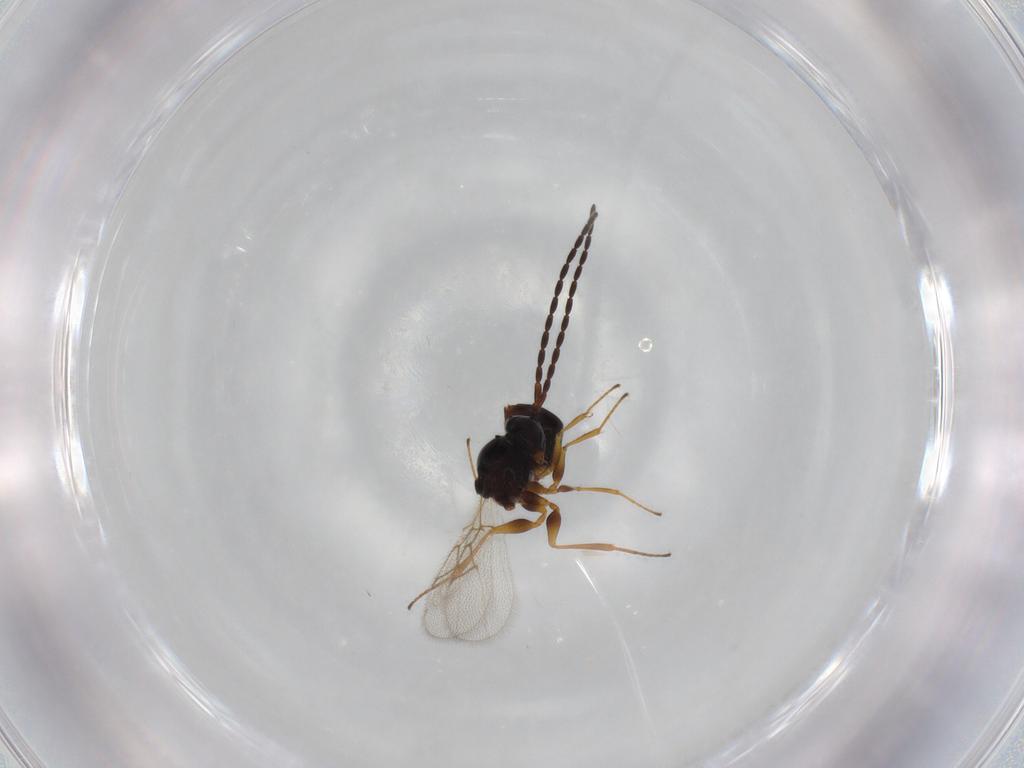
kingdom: Animalia
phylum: Arthropoda
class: Insecta
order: Hymenoptera
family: Figitidae
